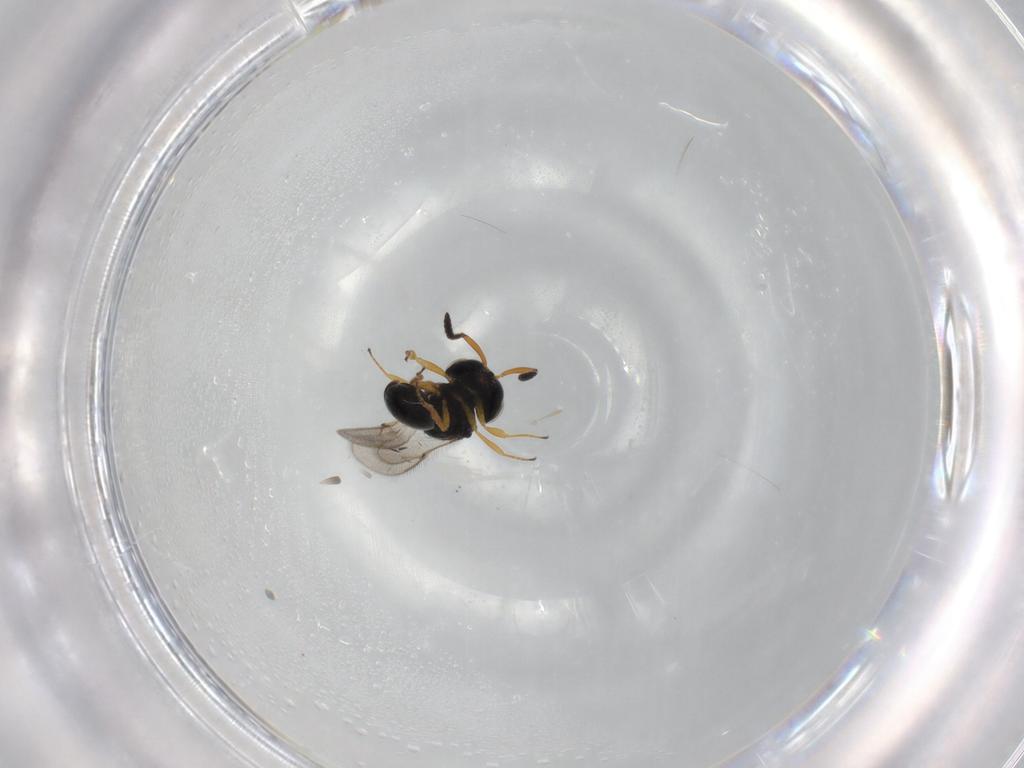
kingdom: Animalia
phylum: Arthropoda
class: Insecta
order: Hymenoptera
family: Scelionidae
